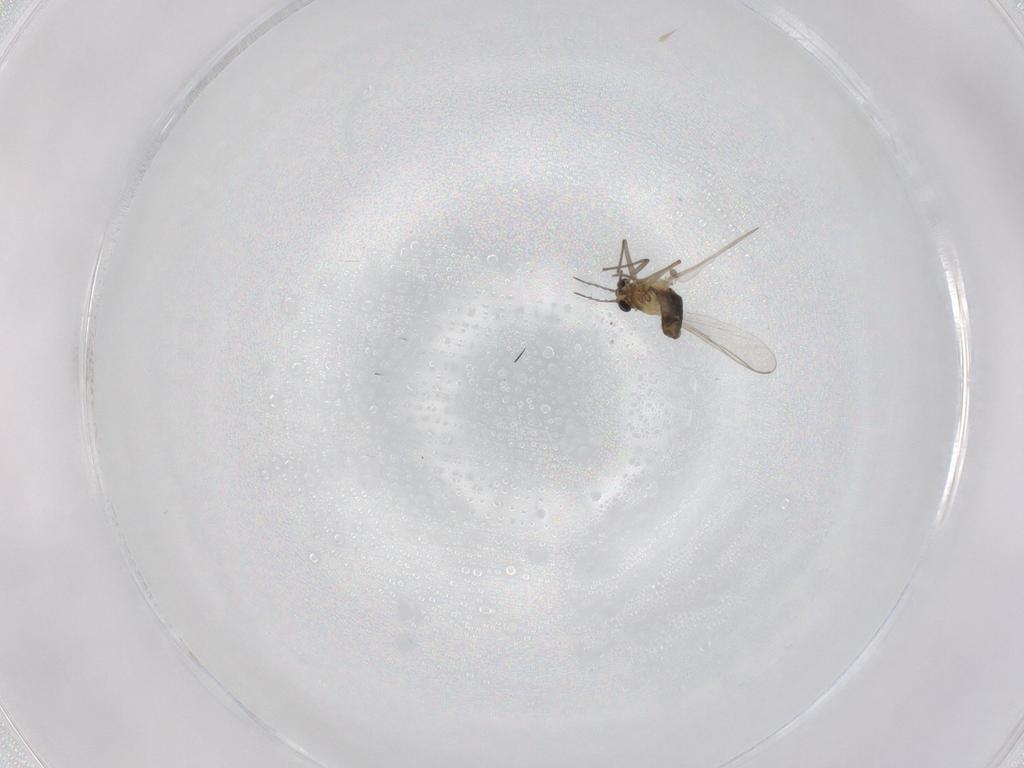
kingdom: Animalia
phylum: Arthropoda
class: Insecta
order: Diptera
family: Chironomidae
